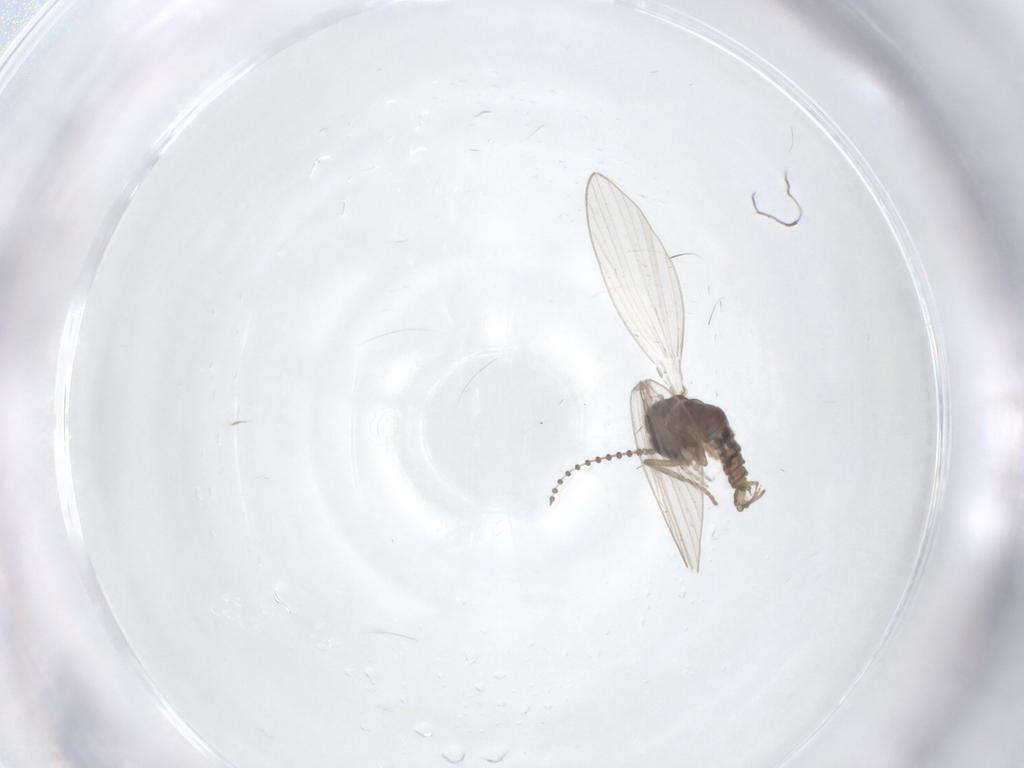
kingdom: Animalia
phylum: Arthropoda
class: Insecta
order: Diptera
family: Psychodidae
